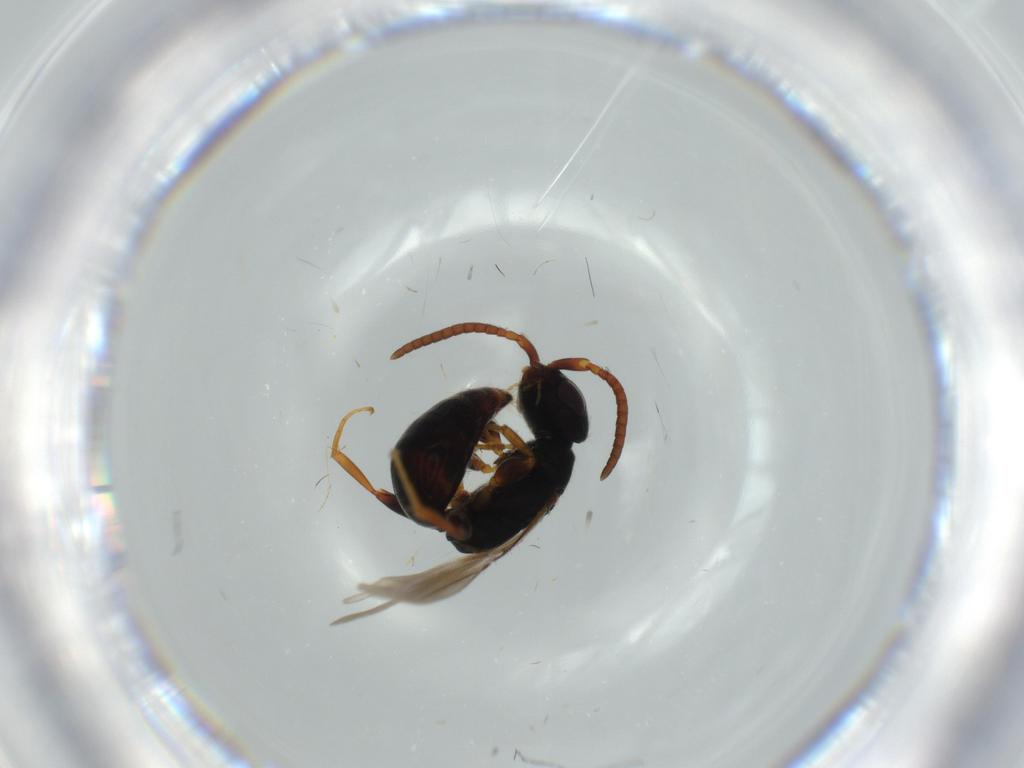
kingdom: Animalia
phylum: Arthropoda
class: Insecta
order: Hymenoptera
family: Bethylidae
